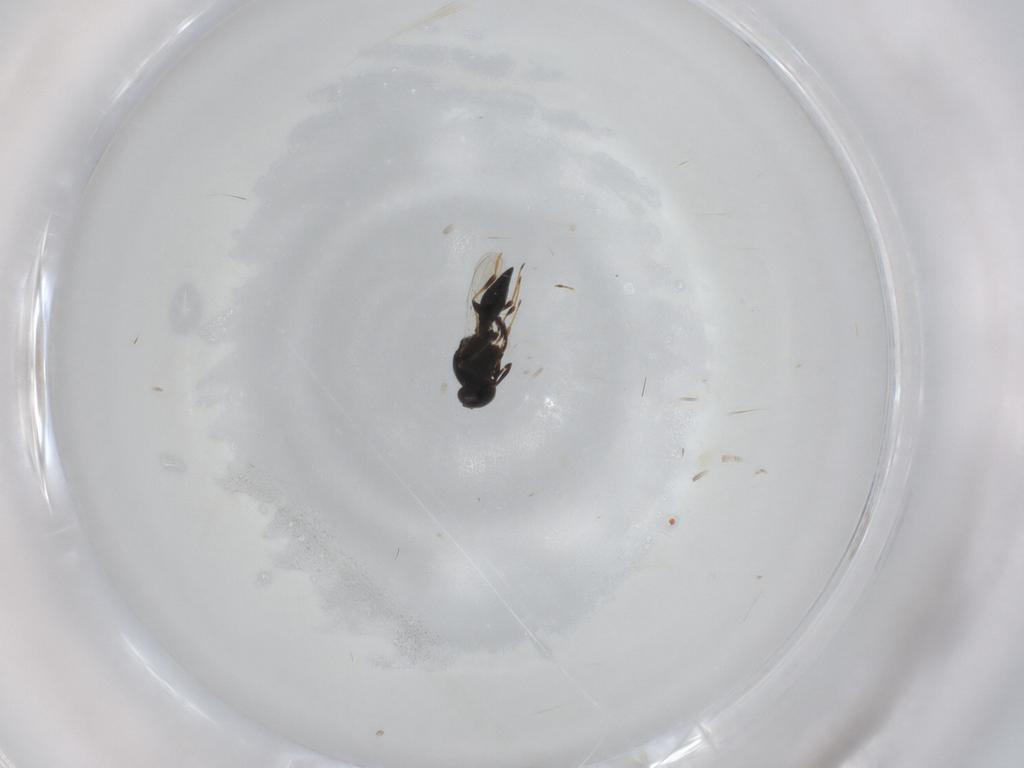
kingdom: Animalia
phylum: Arthropoda
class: Insecta
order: Hymenoptera
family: Platygastridae
